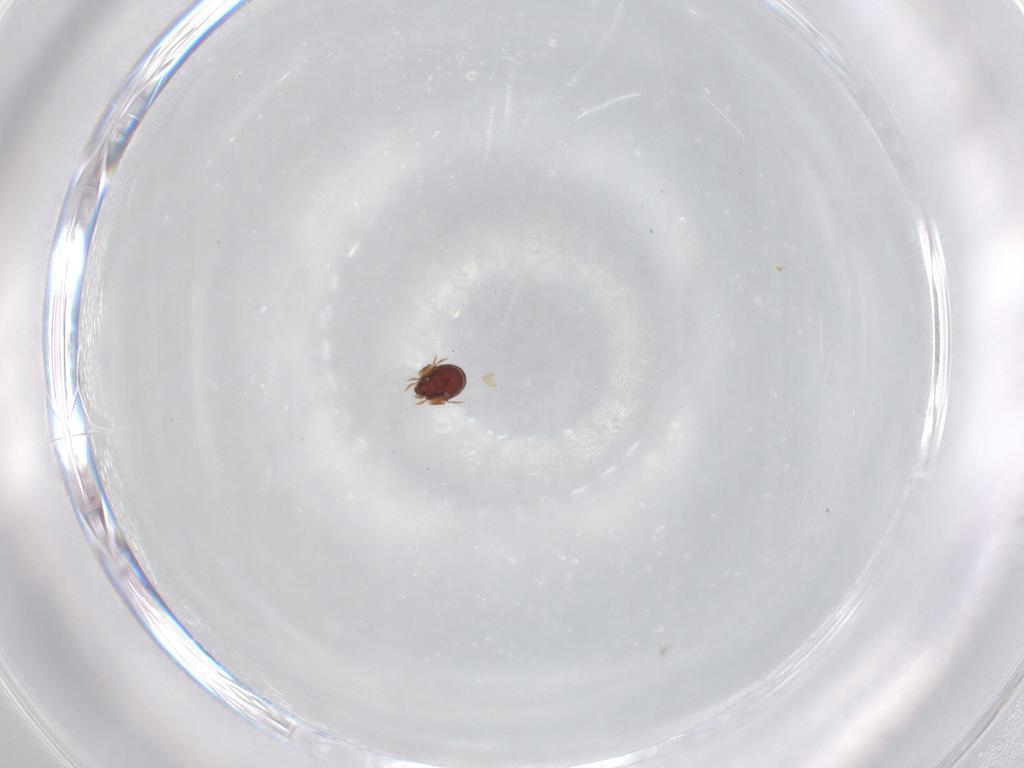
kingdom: Animalia
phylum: Arthropoda
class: Arachnida
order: Sarcoptiformes
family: Phenopelopidae
